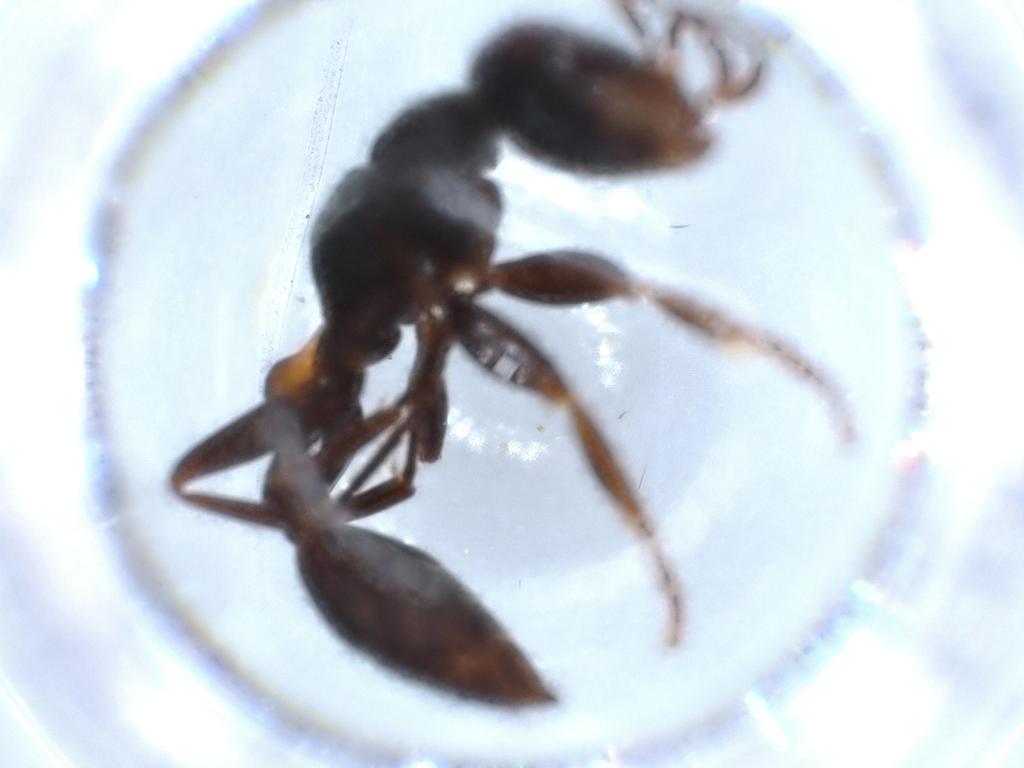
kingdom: Animalia
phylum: Arthropoda
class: Insecta
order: Hymenoptera
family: Formicidae
